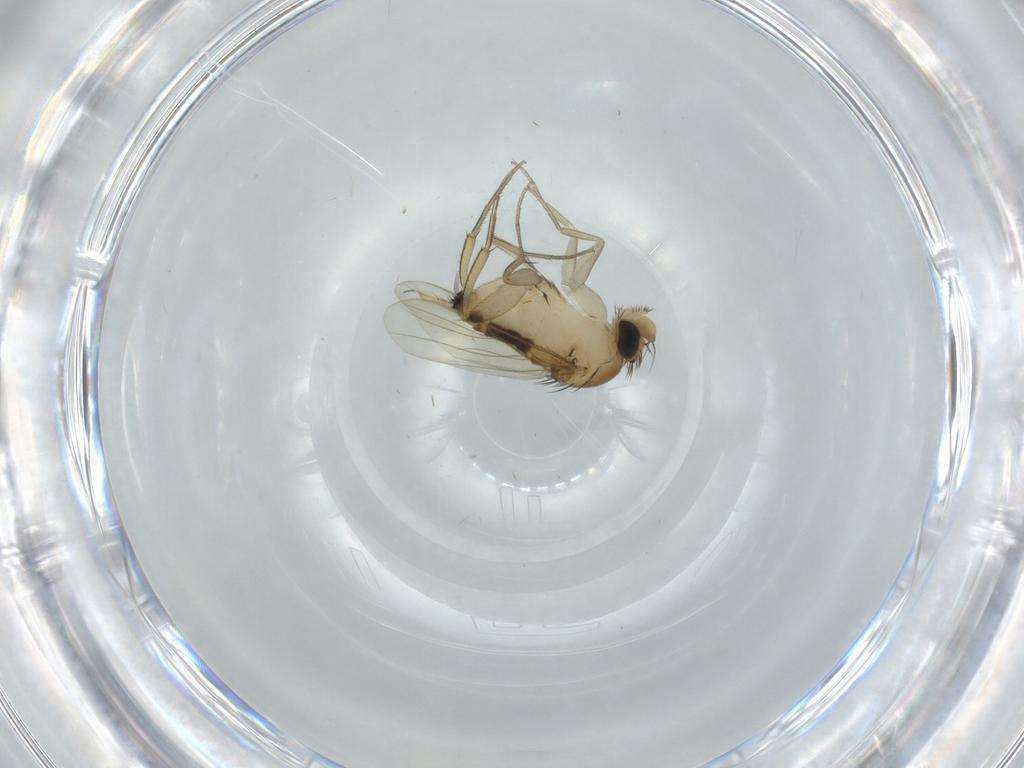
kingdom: Animalia
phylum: Arthropoda
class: Insecta
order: Diptera
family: Phoridae
